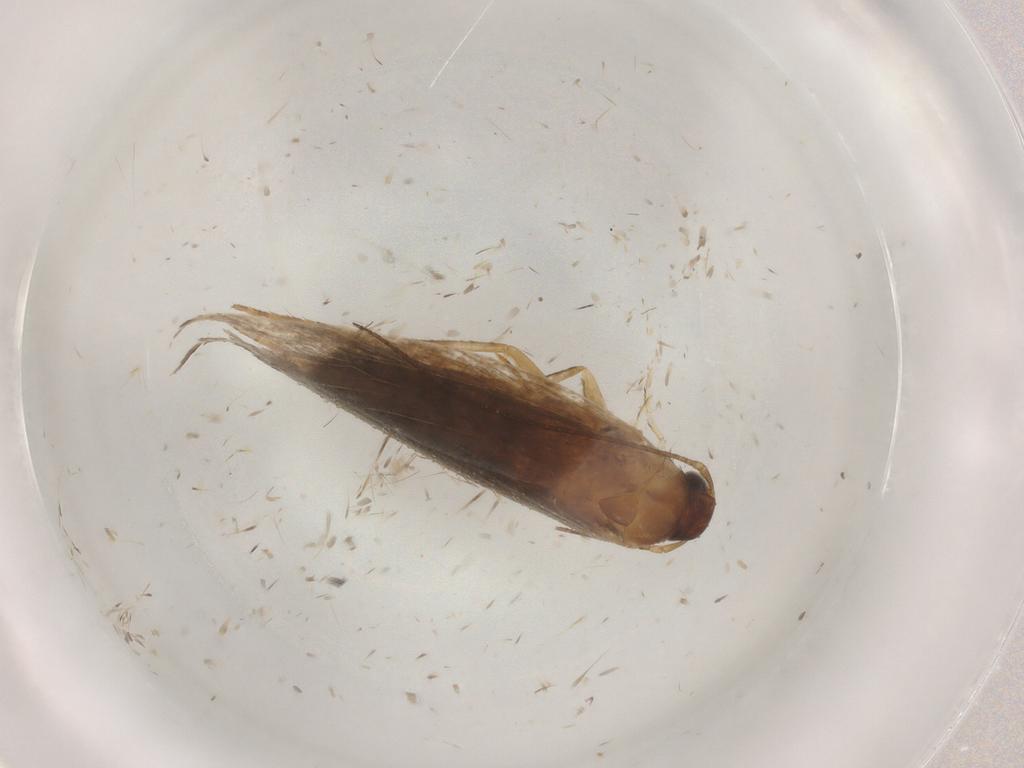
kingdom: Animalia
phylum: Arthropoda
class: Insecta
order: Lepidoptera
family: Gelechiidae
